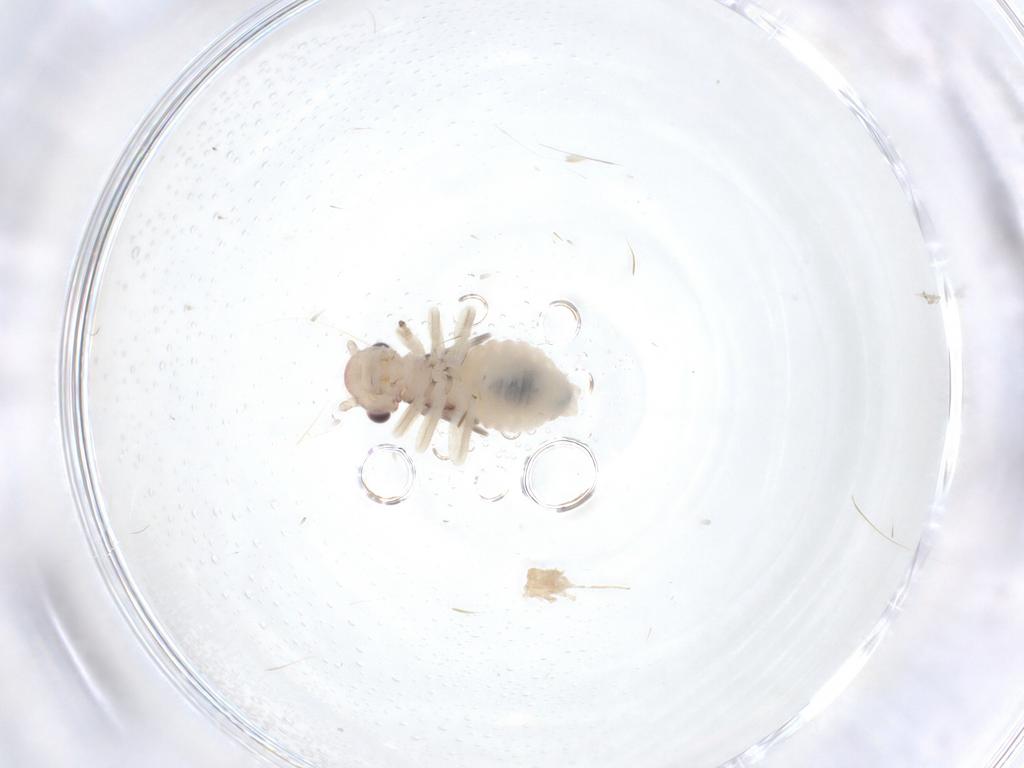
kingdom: Animalia
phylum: Arthropoda
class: Insecta
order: Psocodea
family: Amphipsocidae
